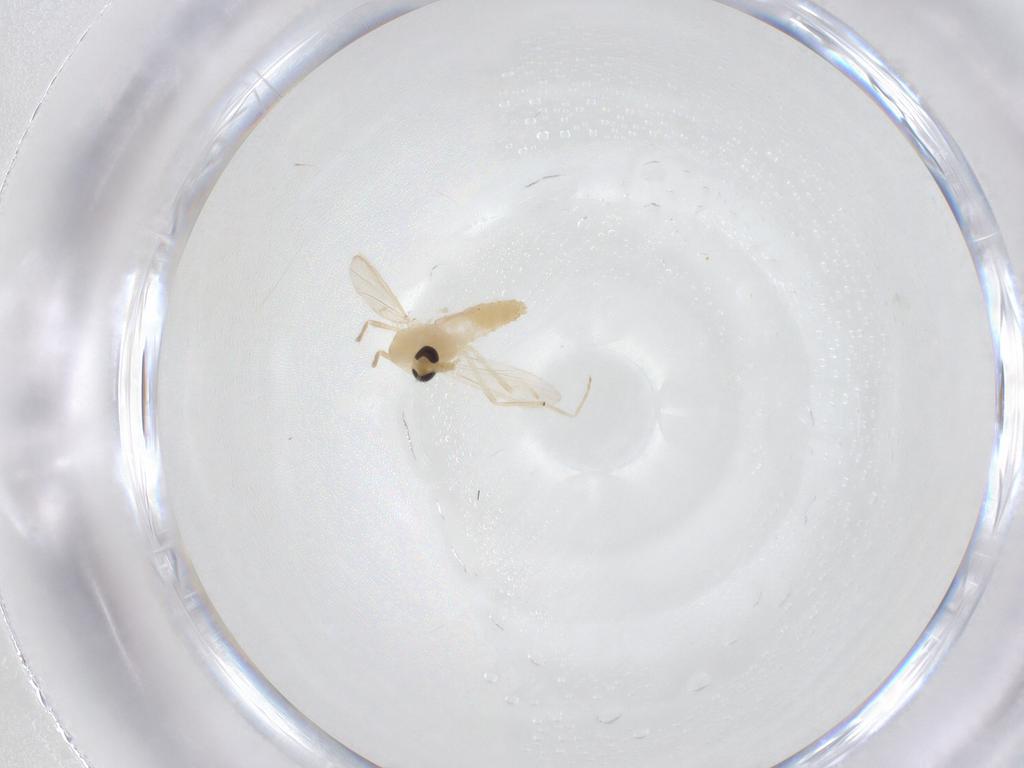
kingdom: Animalia
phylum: Arthropoda
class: Insecta
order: Diptera
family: Chironomidae
